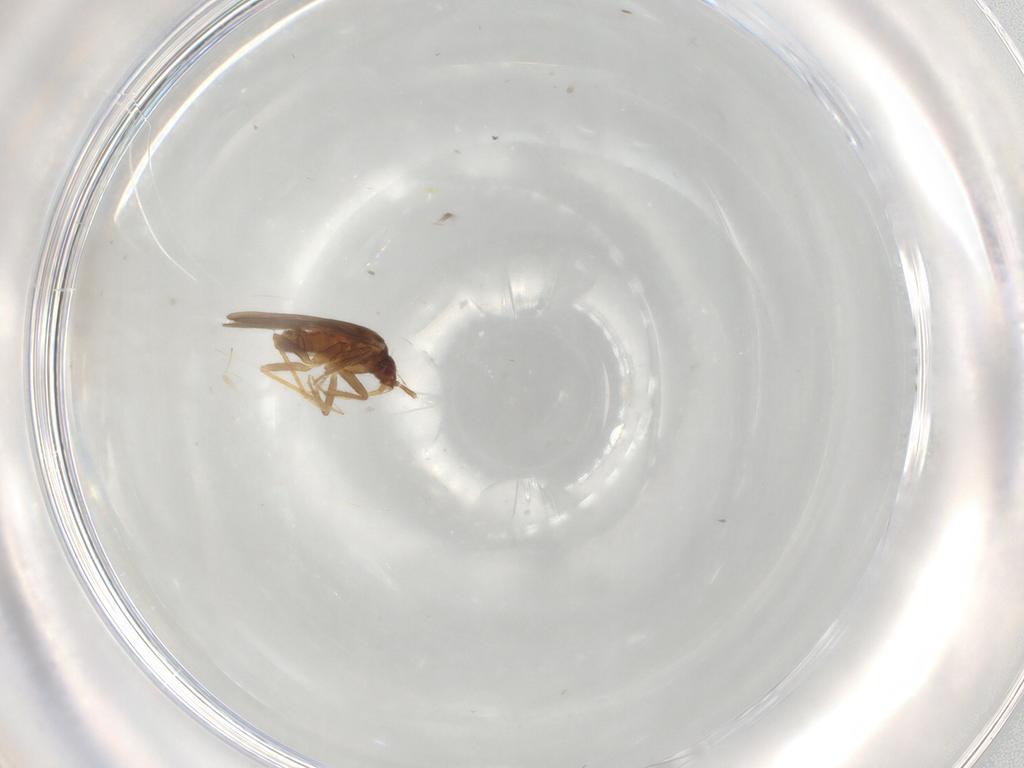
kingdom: Animalia
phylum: Arthropoda
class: Insecta
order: Hemiptera
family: Ceratocombidae
